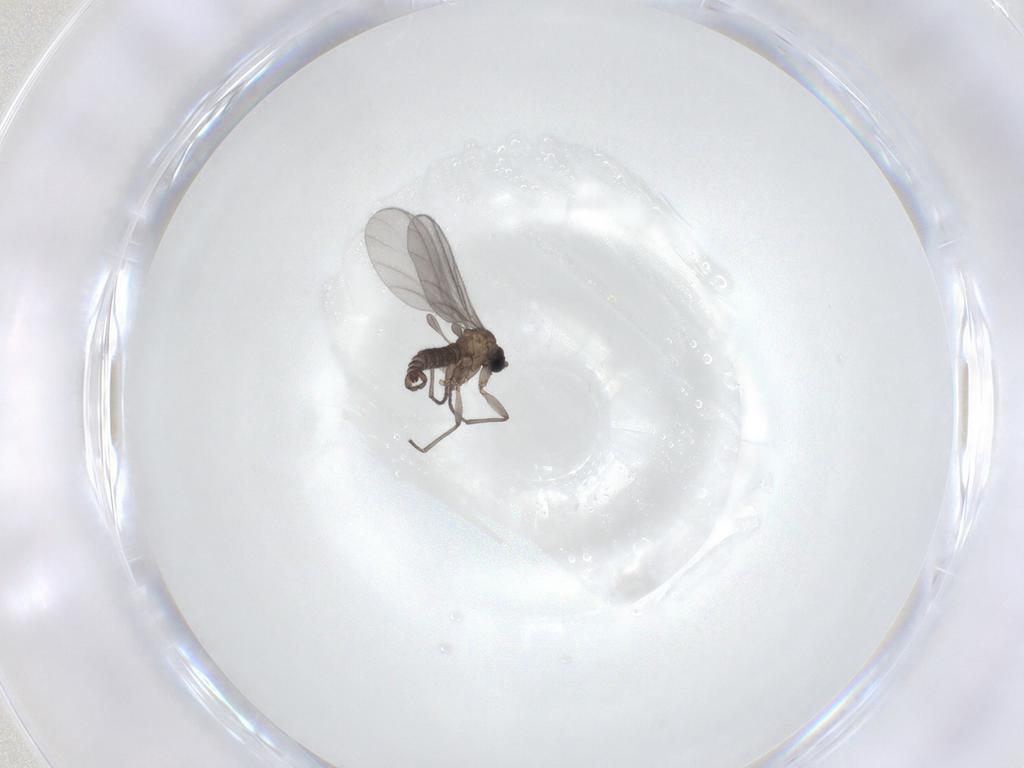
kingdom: Animalia
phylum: Arthropoda
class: Insecta
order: Diptera
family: Sciaridae
